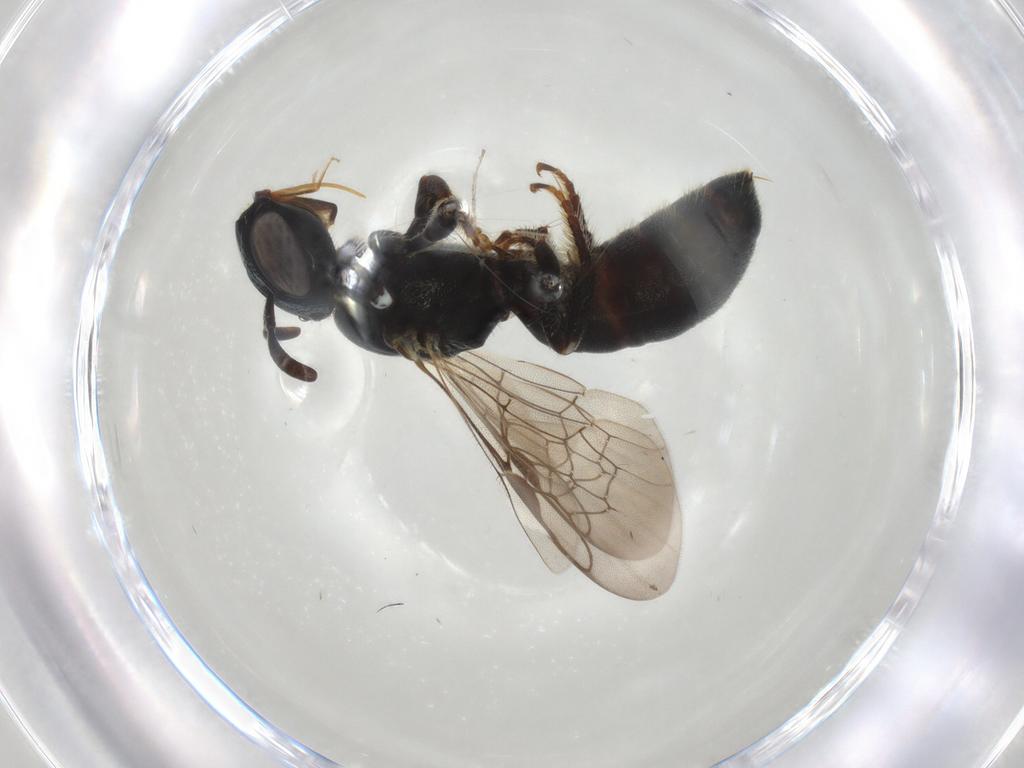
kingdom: Animalia
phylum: Arthropoda
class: Insecta
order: Hymenoptera
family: Apidae
